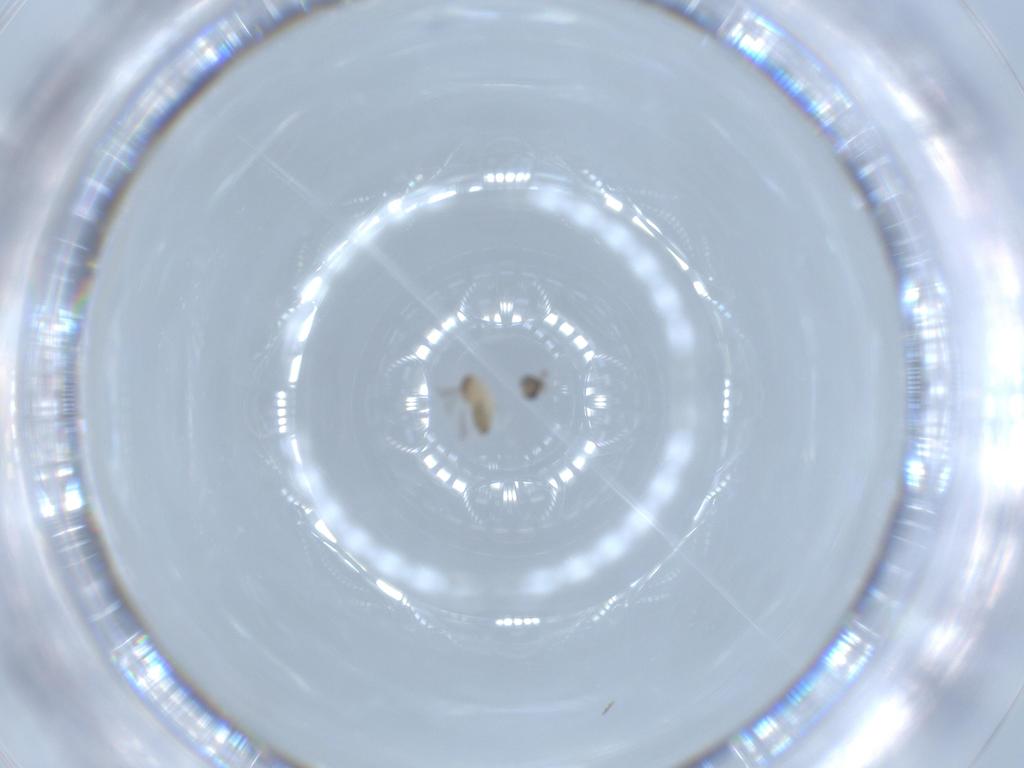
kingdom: Animalia
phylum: Arthropoda
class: Insecta
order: Diptera
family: Cecidomyiidae
